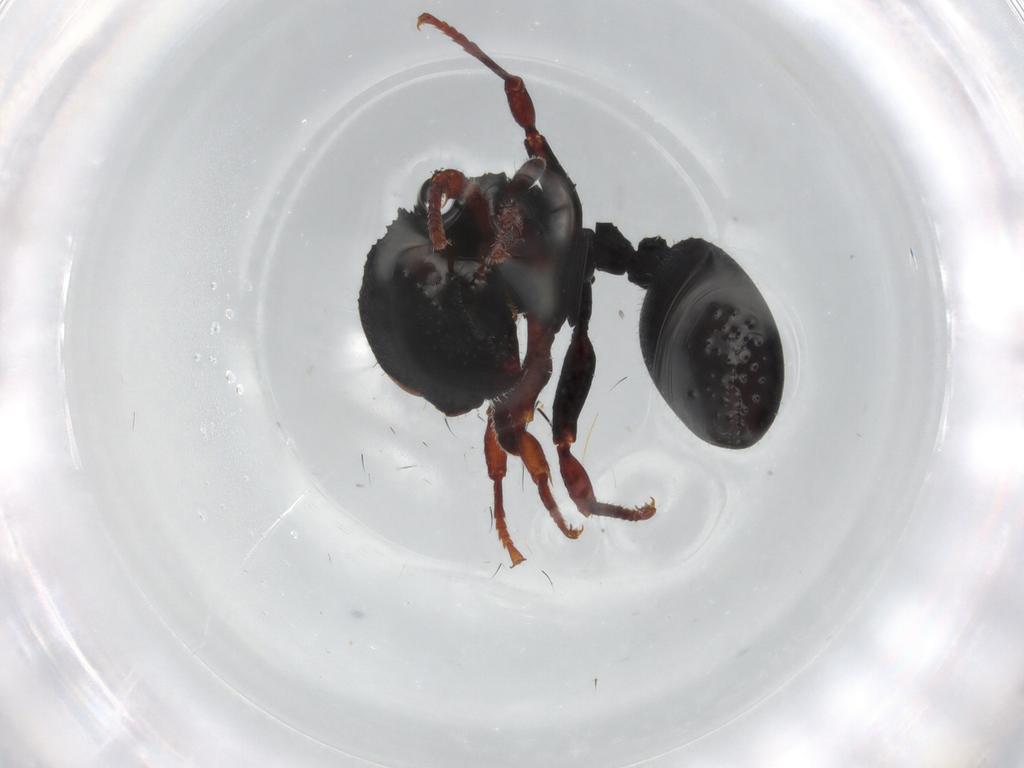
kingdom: Animalia
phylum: Arthropoda
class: Insecta
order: Hymenoptera
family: Formicidae
